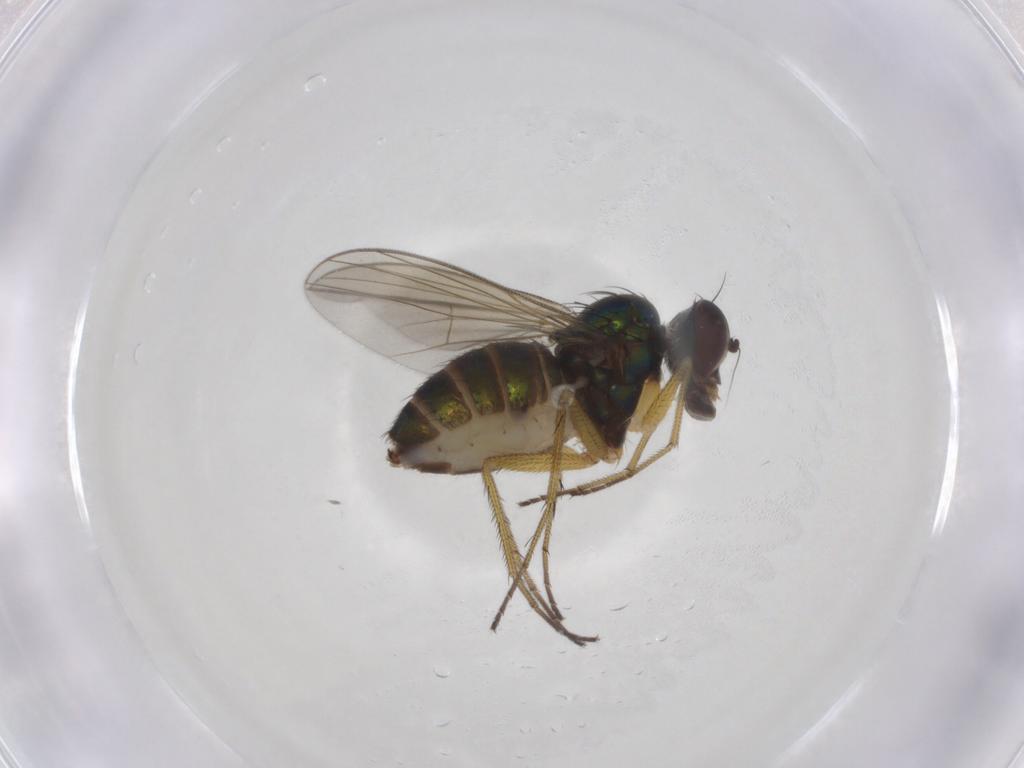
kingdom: Animalia
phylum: Arthropoda
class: Insecta
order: Diptera
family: Dolichopodidae
